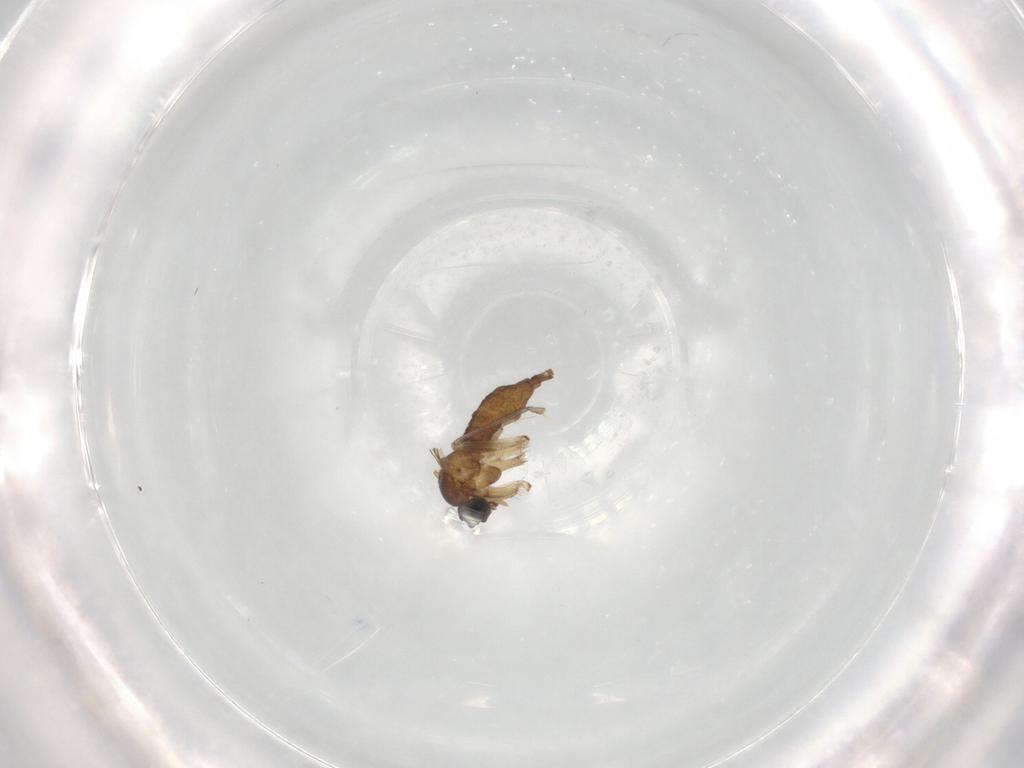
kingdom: Animalia
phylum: Arthropoda
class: Insecta
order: Diptera
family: Sciaridae
